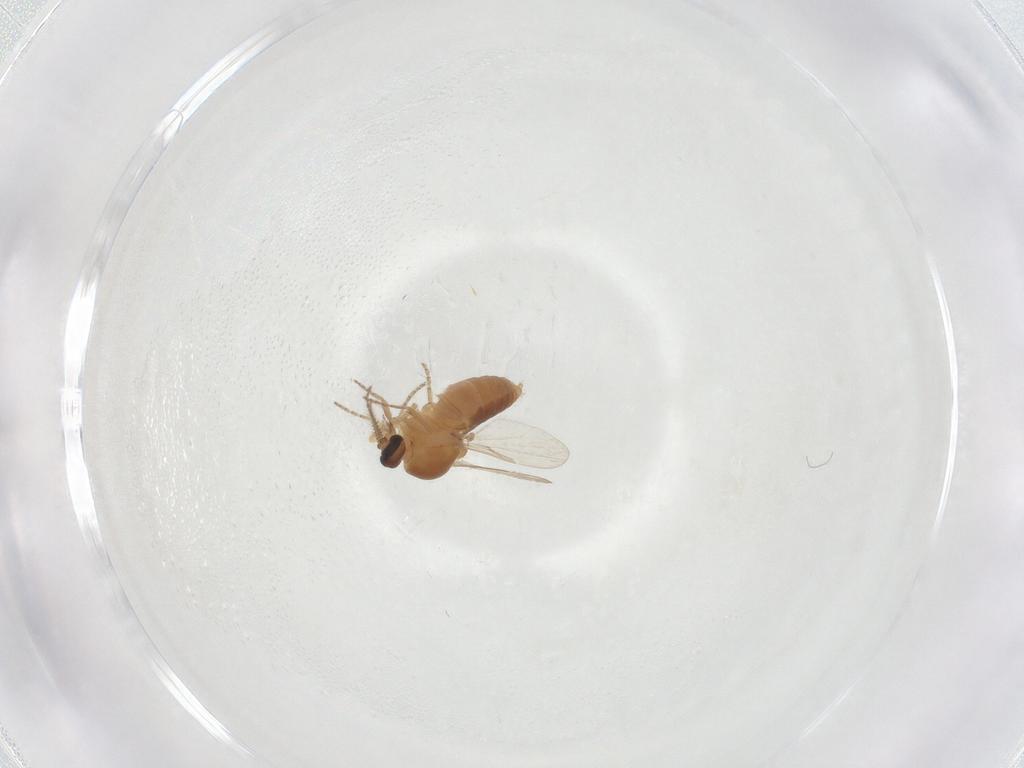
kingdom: Animalia
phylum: Arthropoda
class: Insecta
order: Diptera
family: Ceratopogonidae
